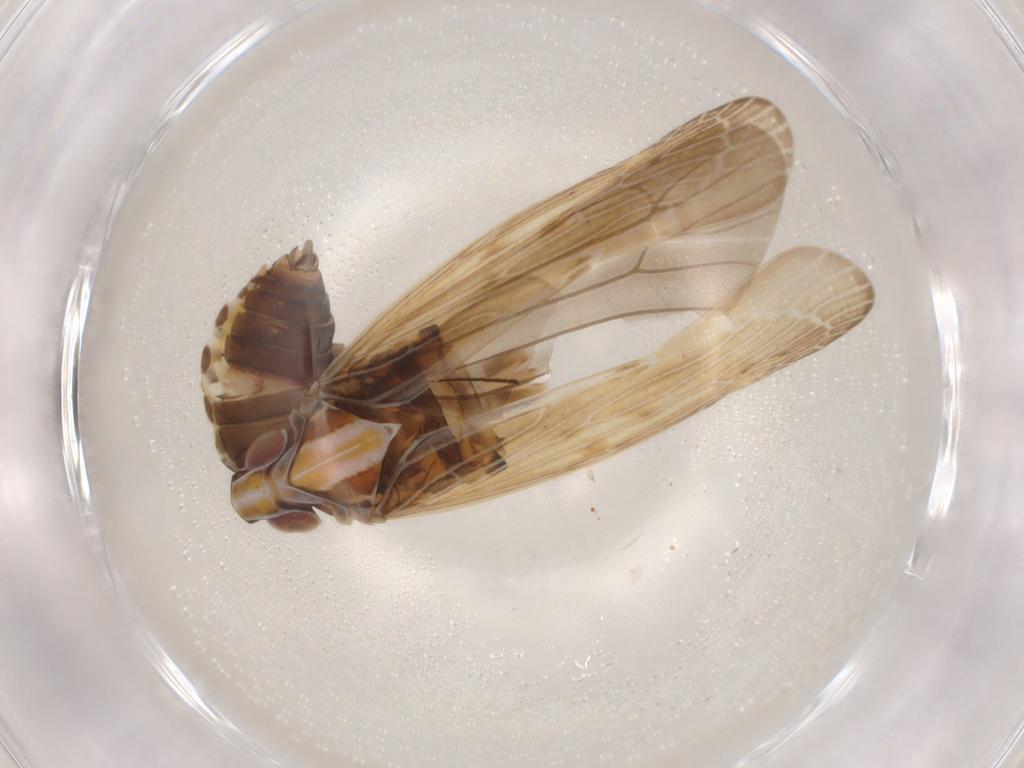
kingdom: Animalia
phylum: Arthropoda
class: Insecta
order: Hemiptera
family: Achilidae
